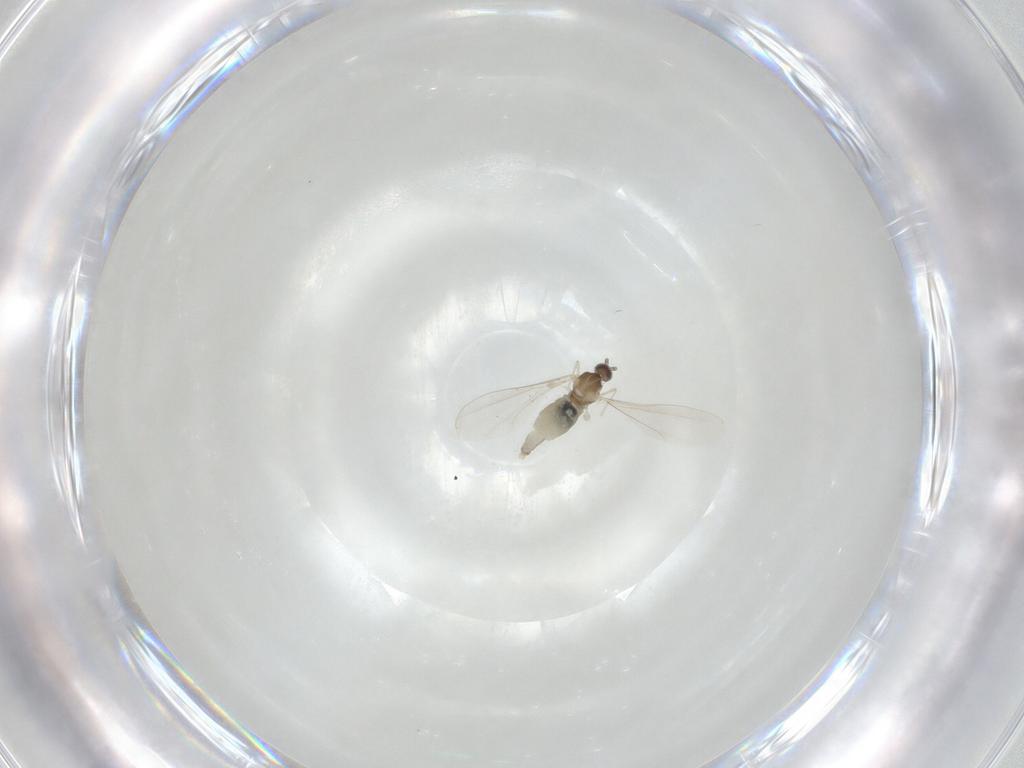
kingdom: Animalia
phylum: Arthropoda
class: Insecta
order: Diptera
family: Cecidomyiidae
